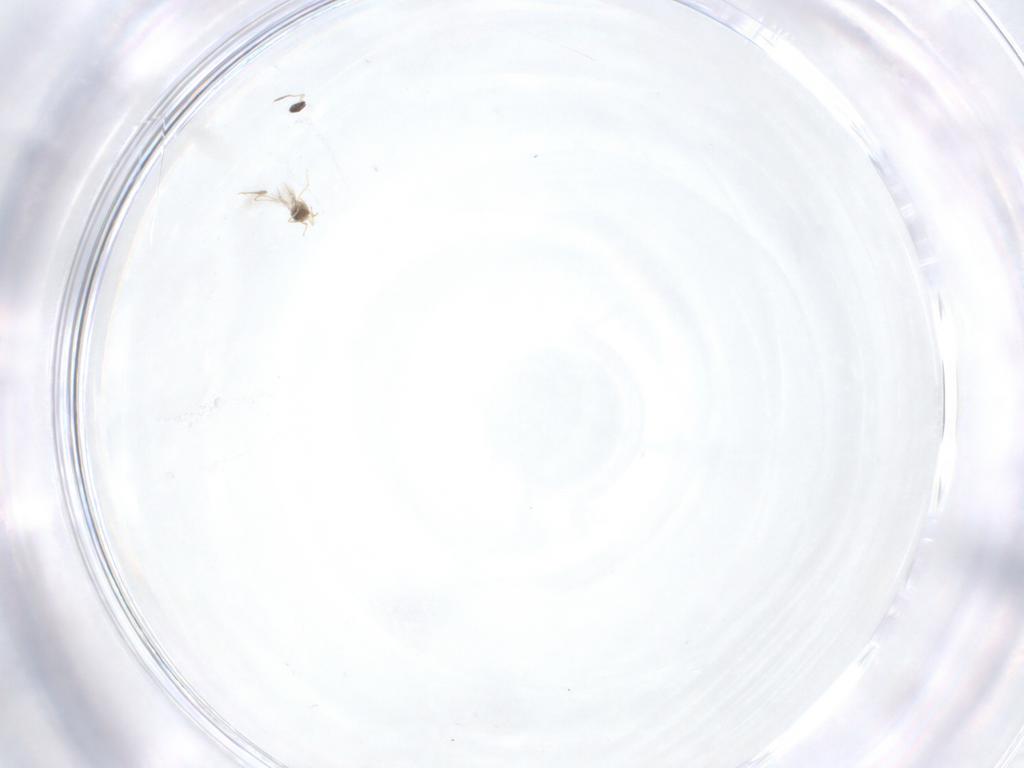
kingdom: Animalia
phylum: Arthropoda
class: Insecta
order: Hymenoptera
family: Mymaridae
